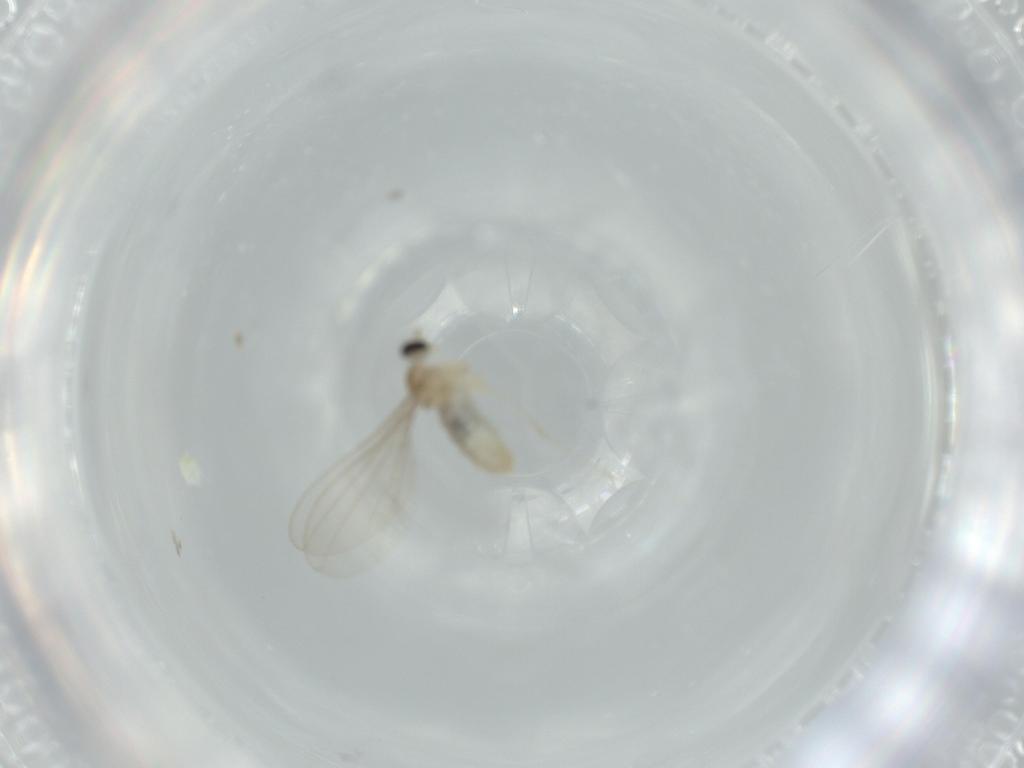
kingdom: Animalia
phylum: Arthropoda
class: Insecta
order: Diptera
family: Cecidomyiidae
